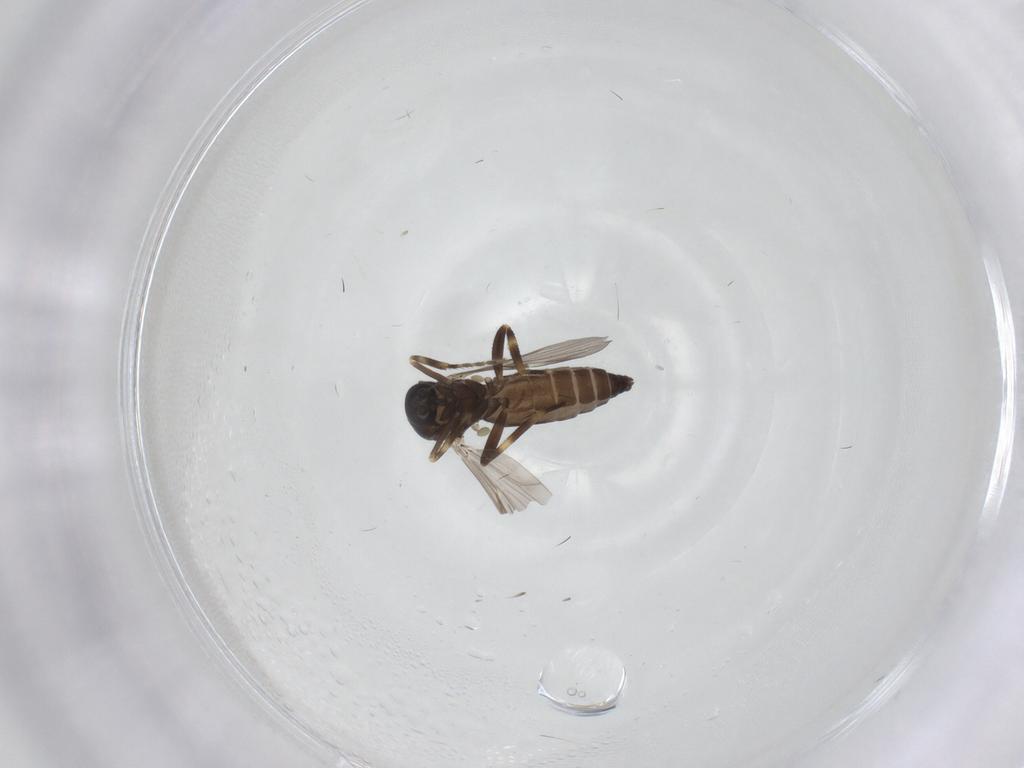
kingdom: Animalia
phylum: Arthropoda
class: Insecta
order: Diptera
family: Ceratopogonidae
